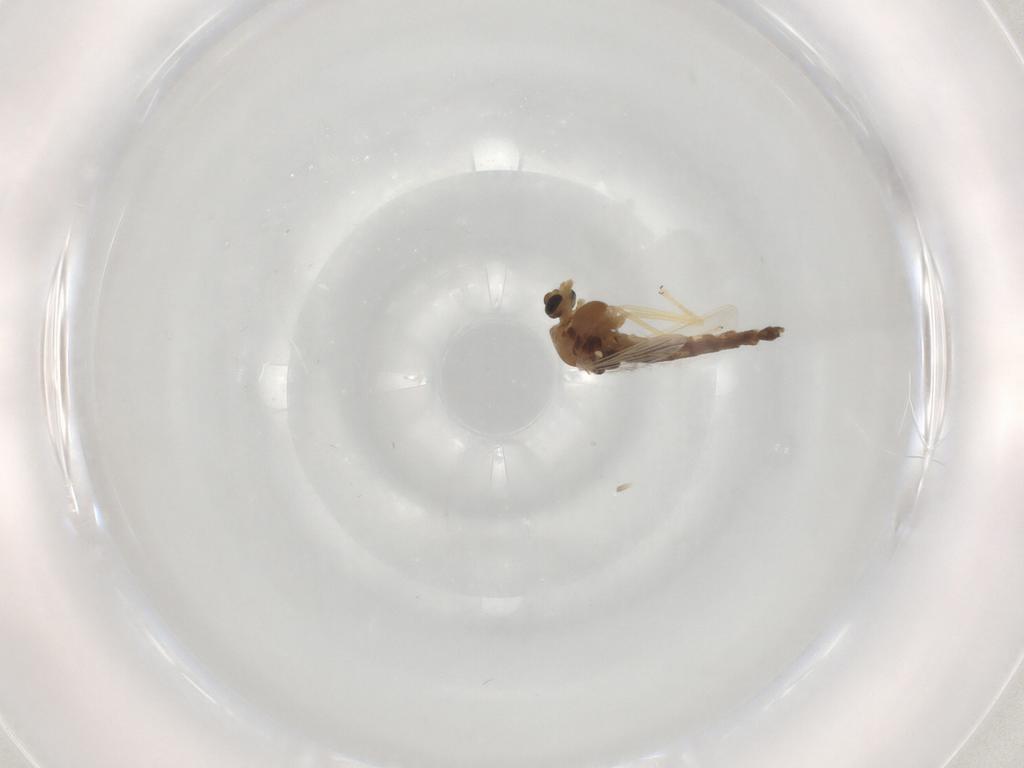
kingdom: Animalia
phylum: Arthropoda
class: Insecta
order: Diptera
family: Chironomidae
